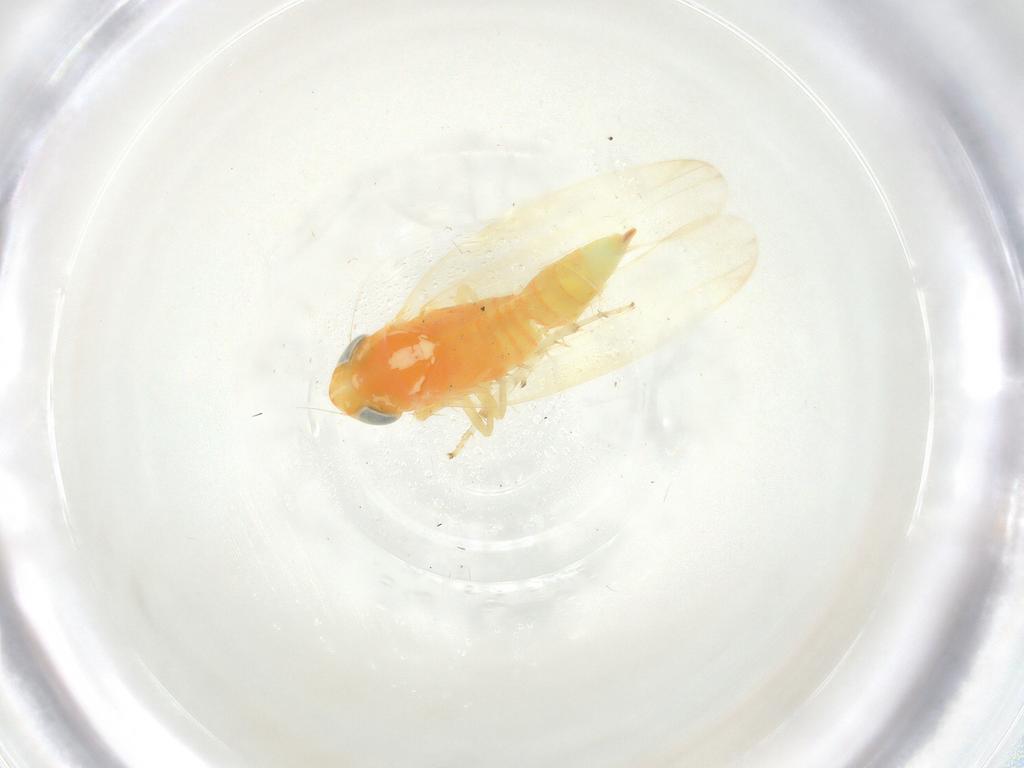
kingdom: Animalia
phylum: Arthropoda
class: Insecta
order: Hemiptera
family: Cicadellidae
